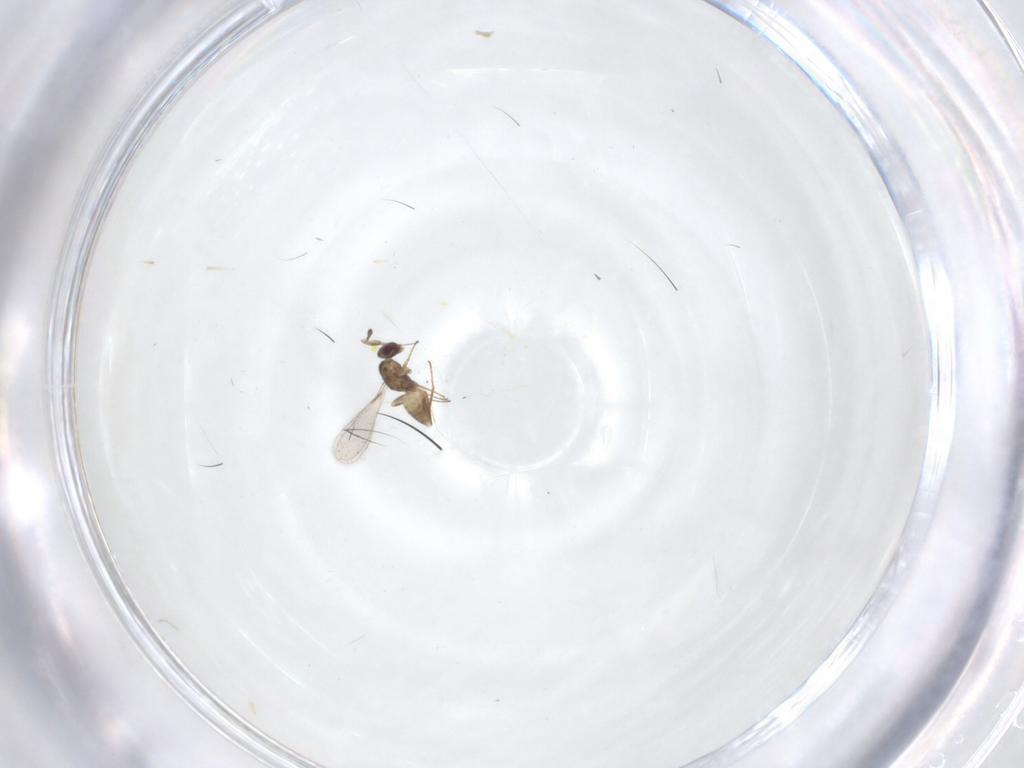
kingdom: Animalia
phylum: Arthropoda
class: Insecta
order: Hymenoptera
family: Mymaridae
